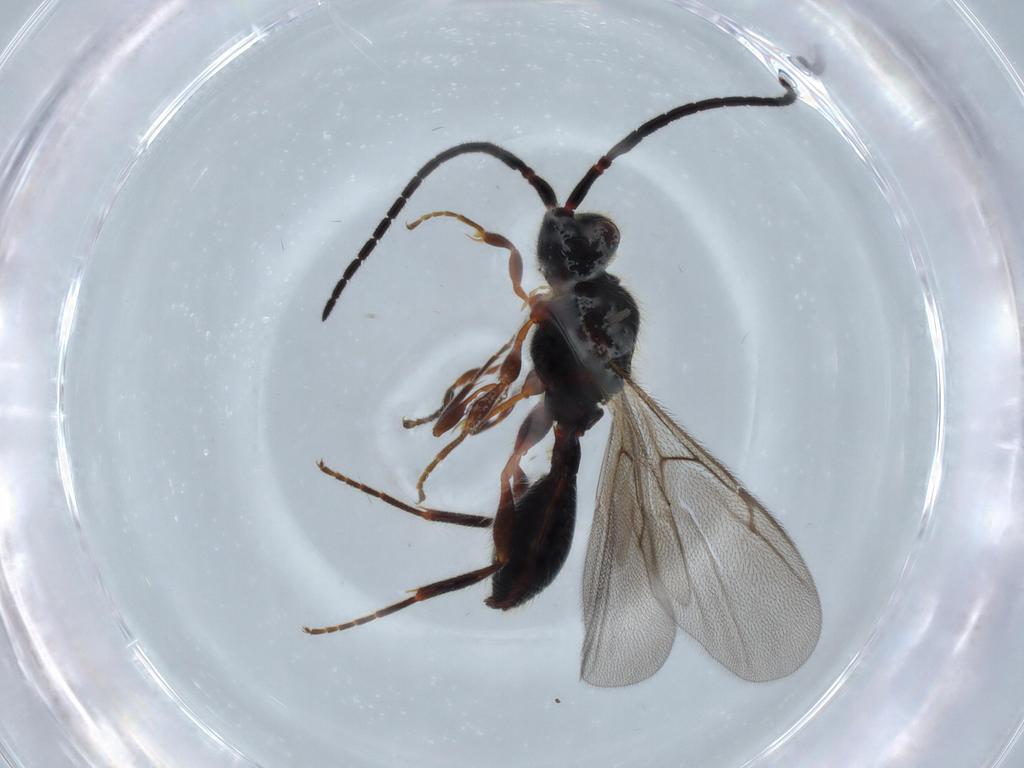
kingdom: Animalia
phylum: Arthropoda
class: Insecta
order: Hymenoptera
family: Diapriidae
